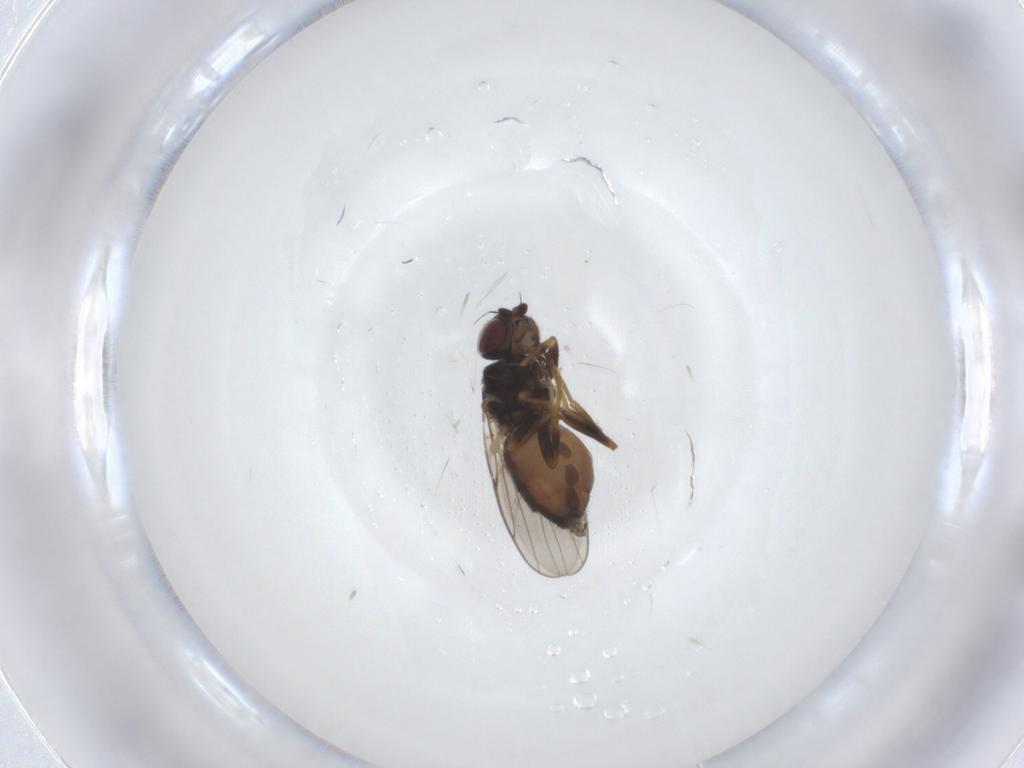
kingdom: Animalia
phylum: Arthropoda
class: Insecta
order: Diptera
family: Chloropidae
